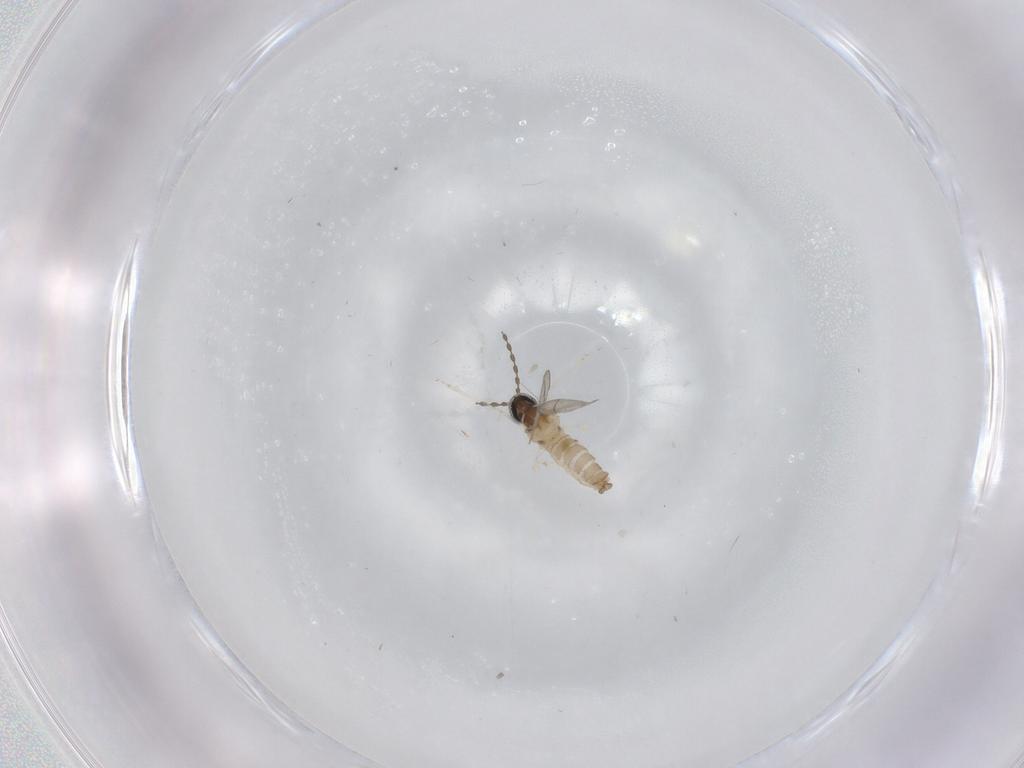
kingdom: Animalia
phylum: Arthropoda
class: Insecta
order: Diptera
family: Cecidomyiidae
